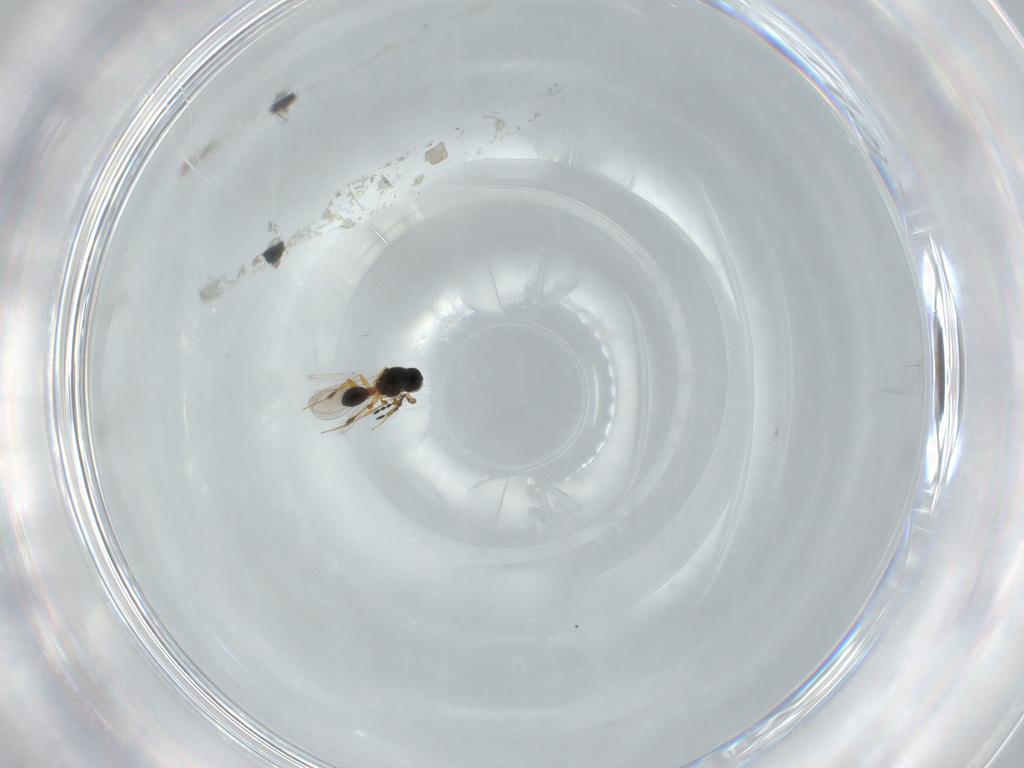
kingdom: Animalia
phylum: Arthropoda
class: Insecta
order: Hymenoptera
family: Platygastridae
